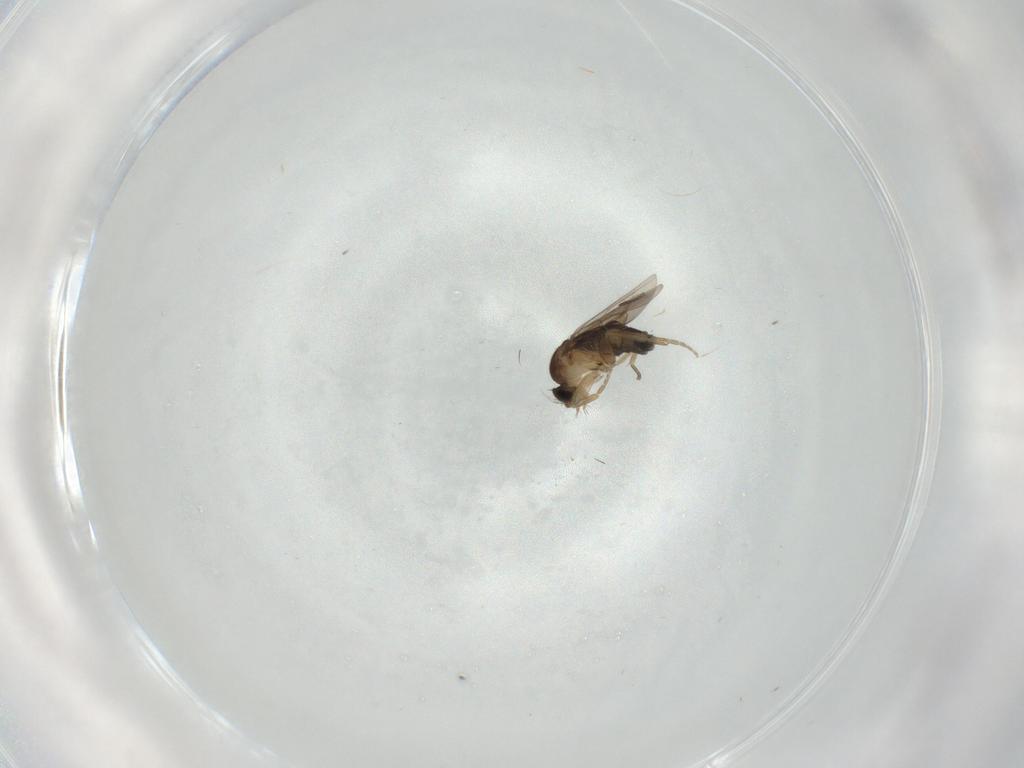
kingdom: Animalia
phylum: Arthropoda
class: Insecta
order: Diptera
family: Phoridae
